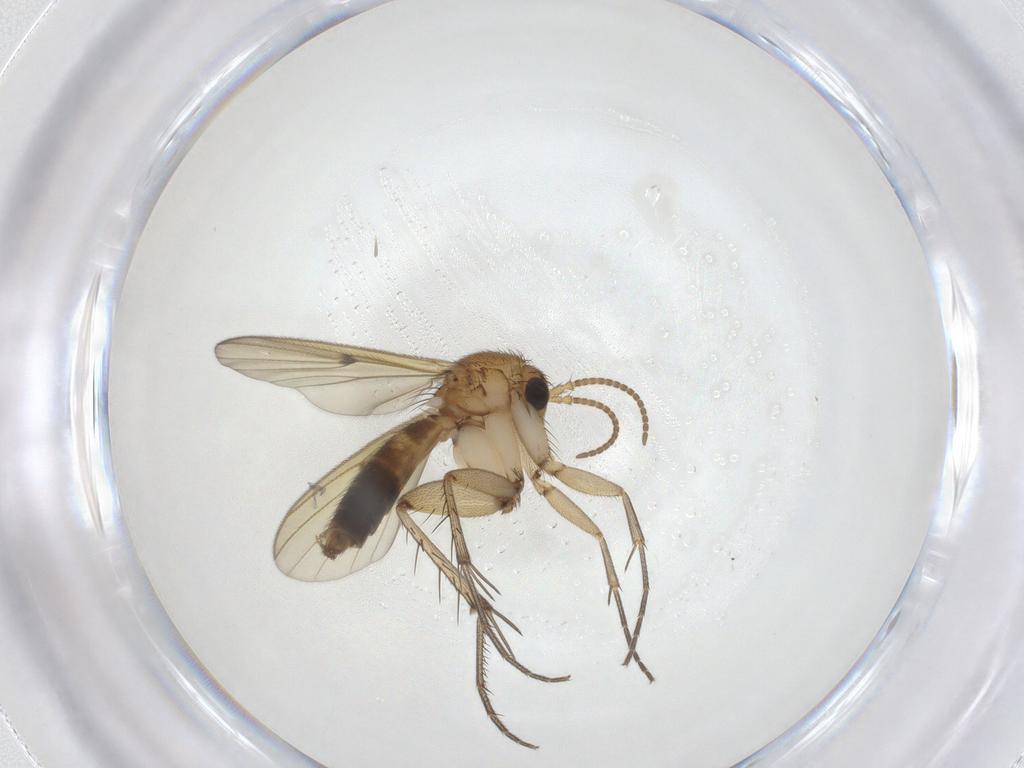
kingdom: Animalia
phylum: Arthropoda
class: Insecta
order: Diptera
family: Mycetophilidae
